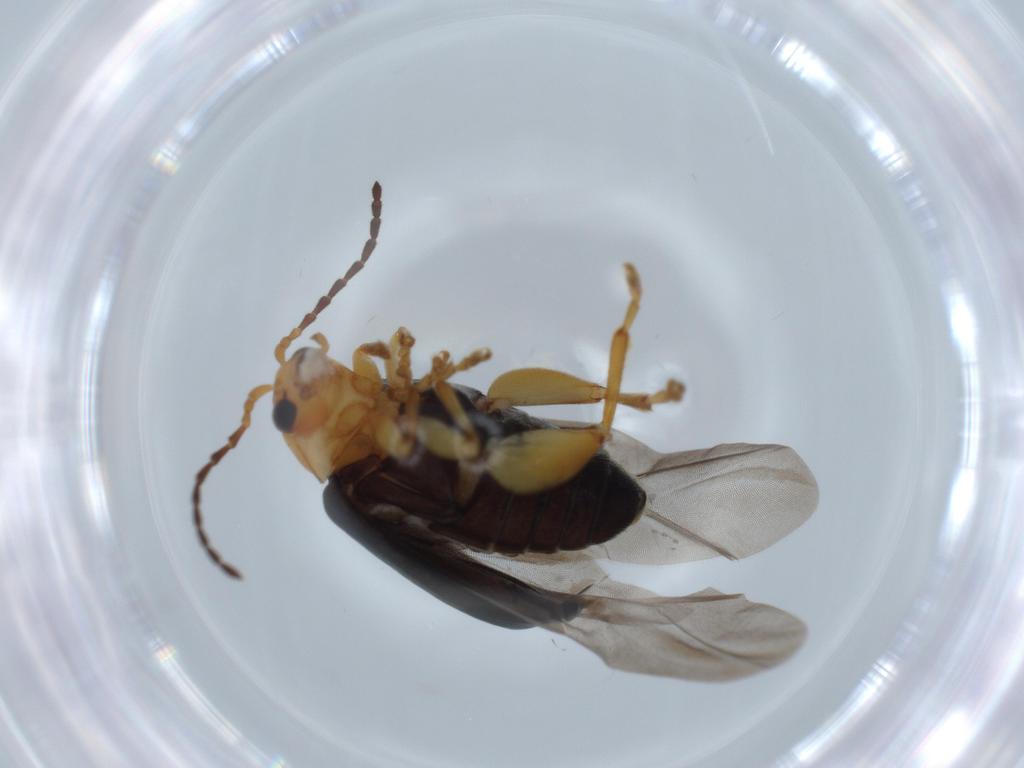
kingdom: Animalia
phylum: Arthropoda
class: Insecta
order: Coleoptera
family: Chrysomelidae
